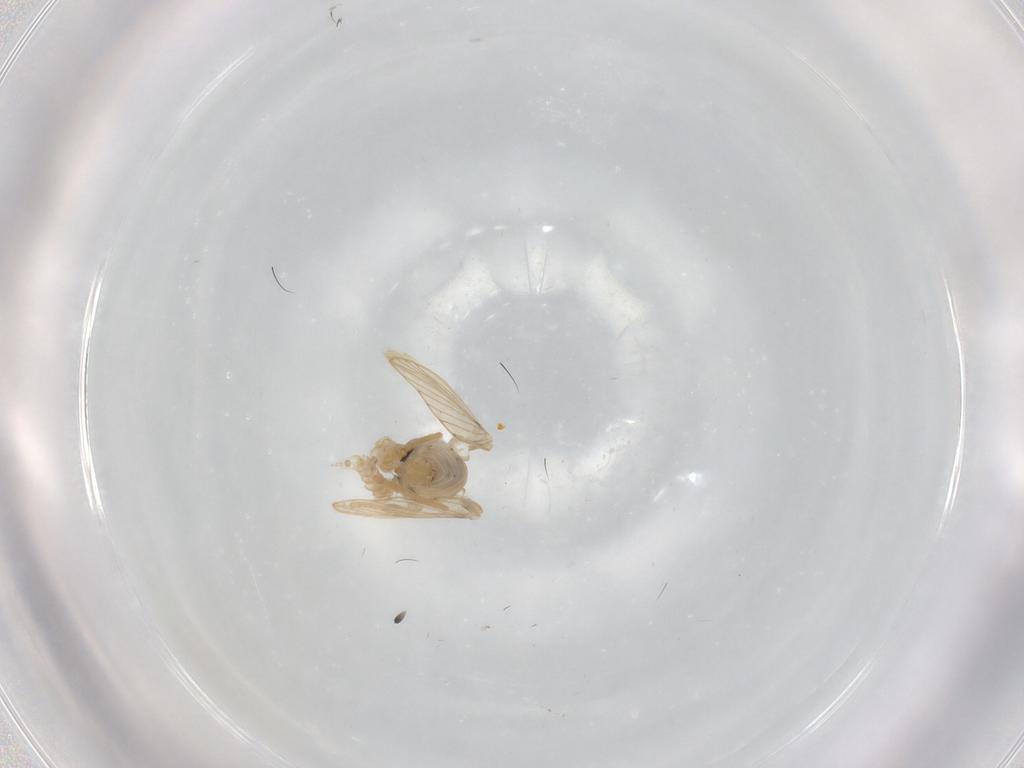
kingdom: Animalia
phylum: Arthropoda
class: Insecta
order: Diptera
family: Psychodidae
